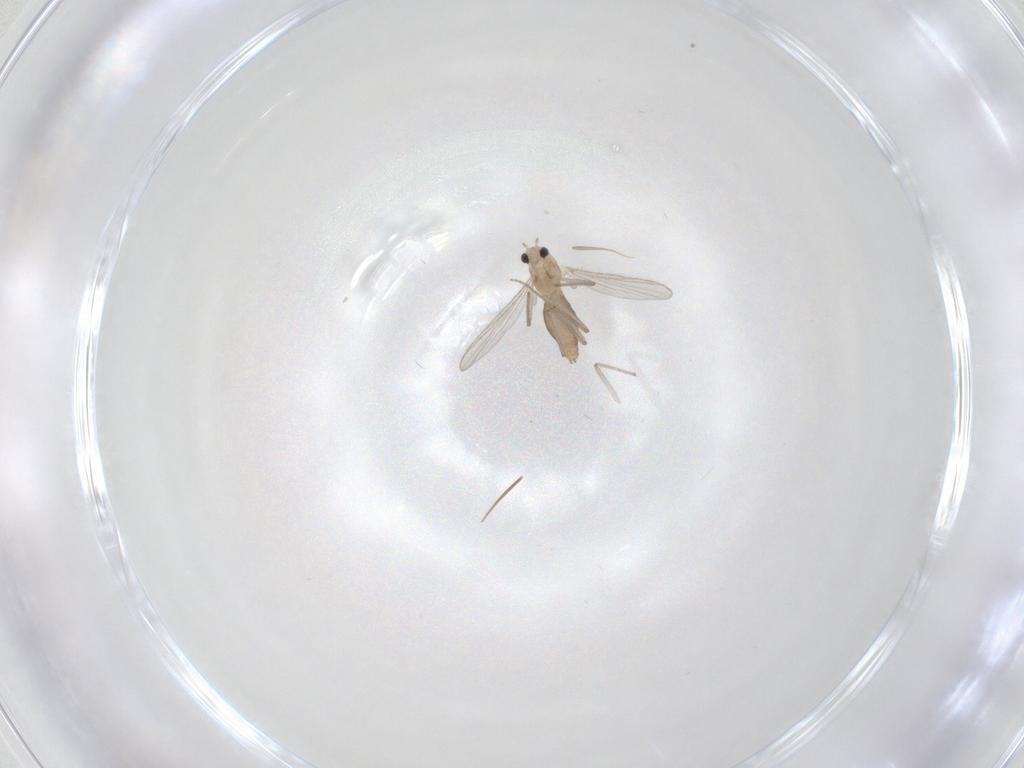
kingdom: Animalia
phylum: Arthropoda
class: Insecta
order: Diptera
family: Chironomidae
